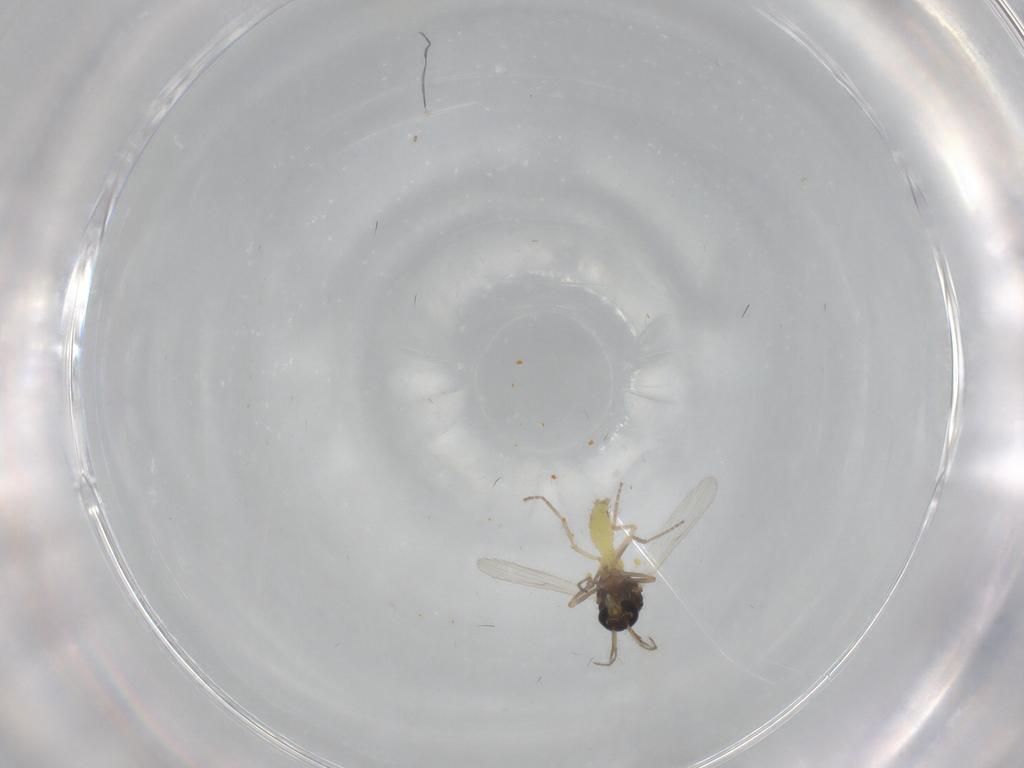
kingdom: Animalia
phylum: Arthropoda
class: Insecta
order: Diptera
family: Ceratopogonidae
